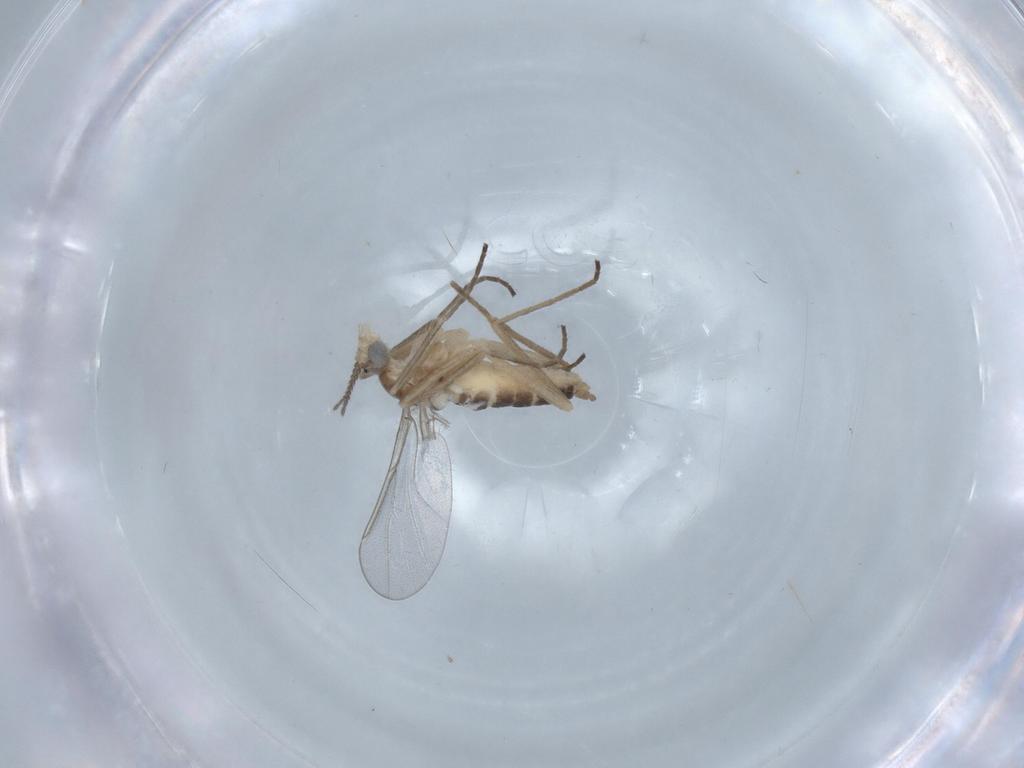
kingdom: Animalia
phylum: Arthropoda
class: Insecta
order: Diptera
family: Cecidomyiidae
